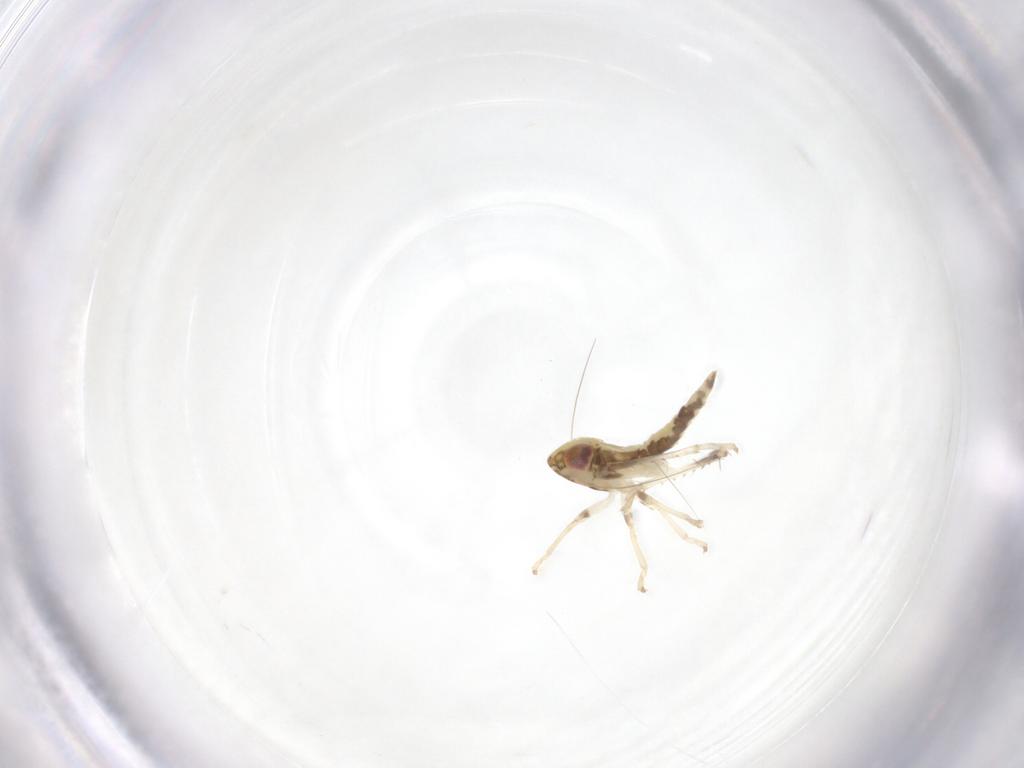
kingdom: Animalia
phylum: Arthropoda
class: Insecta
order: Hemiptera
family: Cicadellidae
